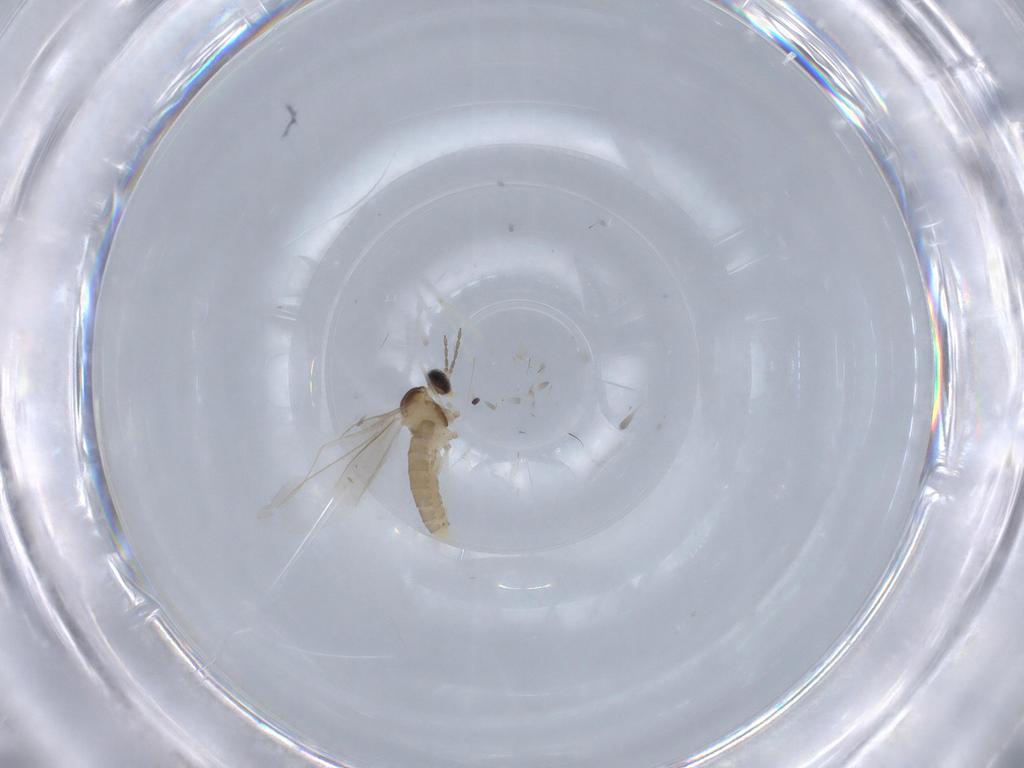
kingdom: Animalia
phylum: Arthropoda
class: Insecta
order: Diptera
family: Cecidomyiidae
